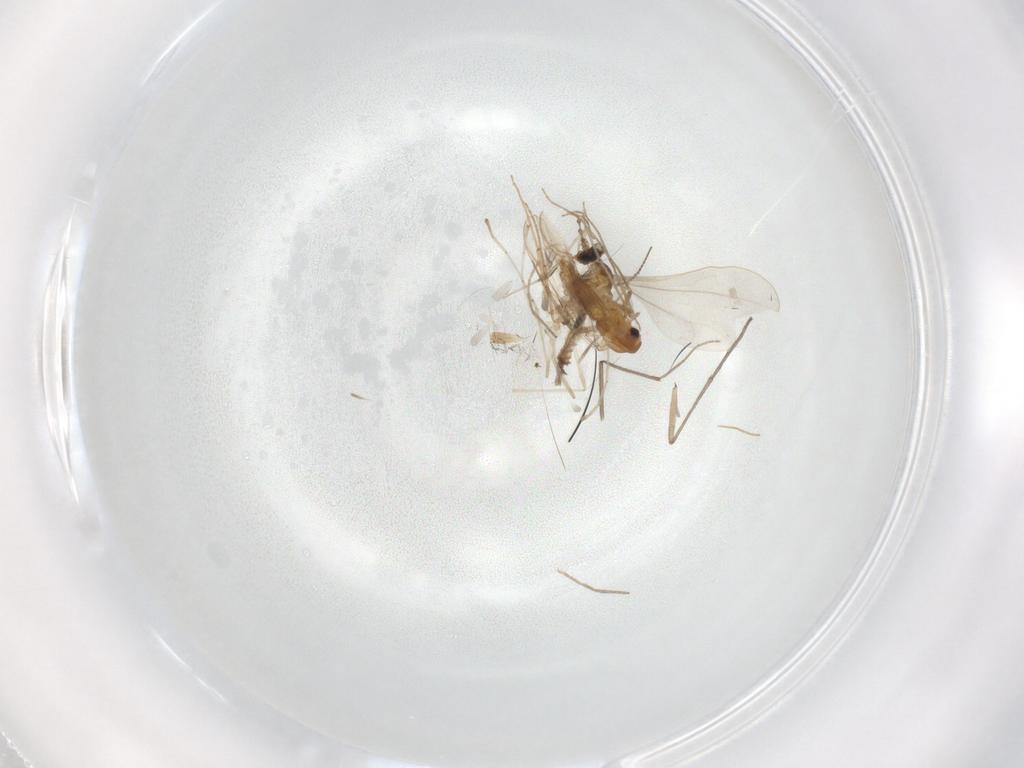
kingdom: Animalia
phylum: Arthropoda
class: Insecta
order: Diptera
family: Cecidomyiidae
